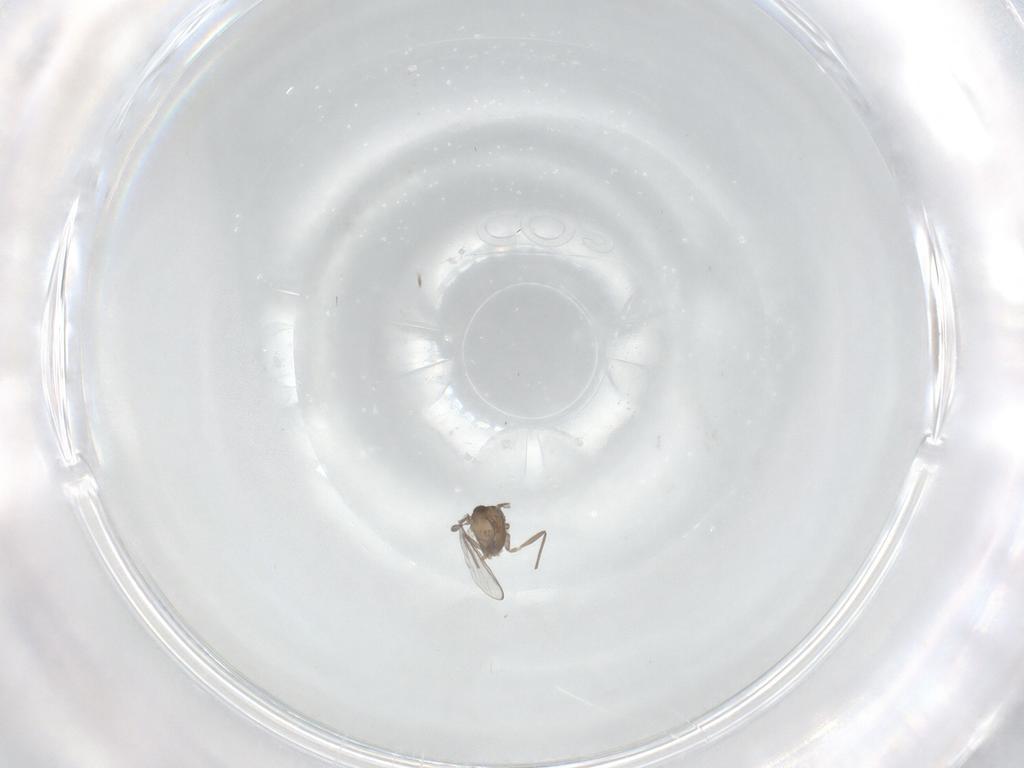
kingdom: Animalia
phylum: Arthropoda
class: Insecta
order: Diptera
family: Chironomidae
